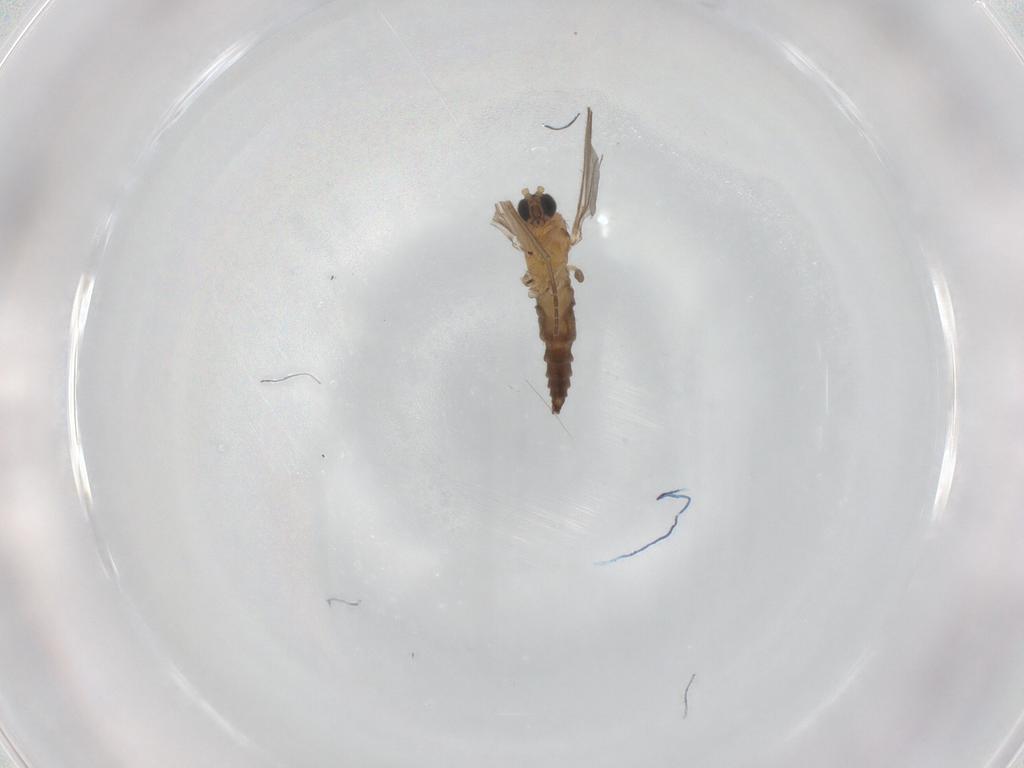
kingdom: Animalia
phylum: Arthropoda
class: Insecta
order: Diptera
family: Sciaridae
